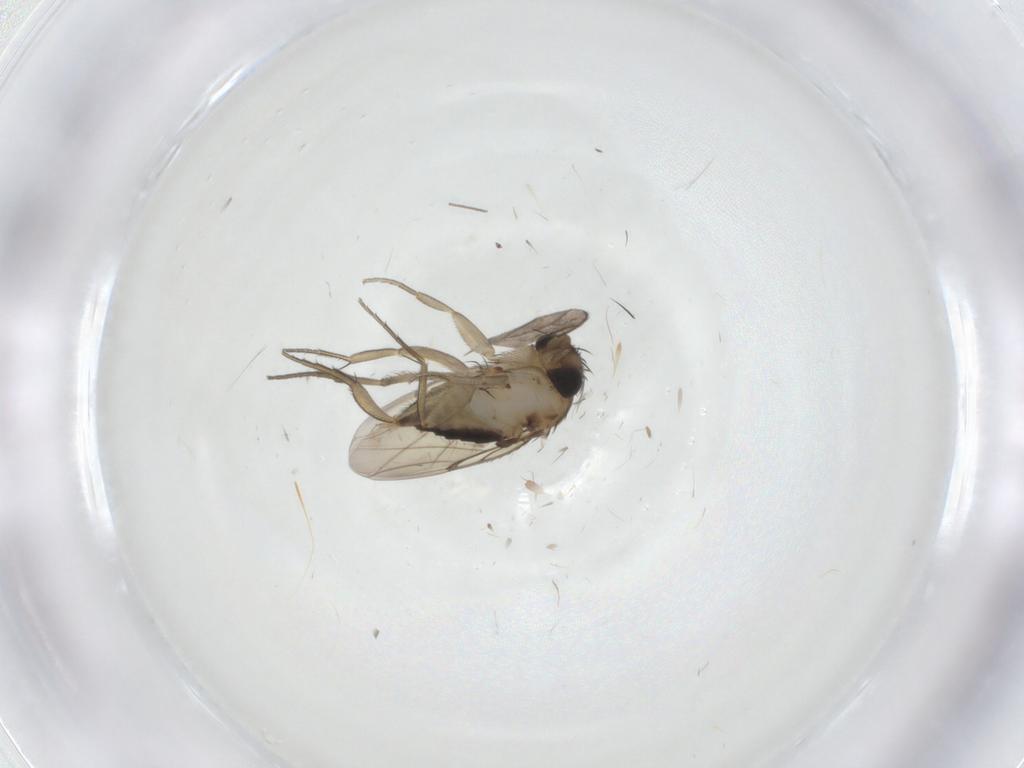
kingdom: Animalia
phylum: Arthropoda
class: Insecta
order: Diptera
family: Phoridae
